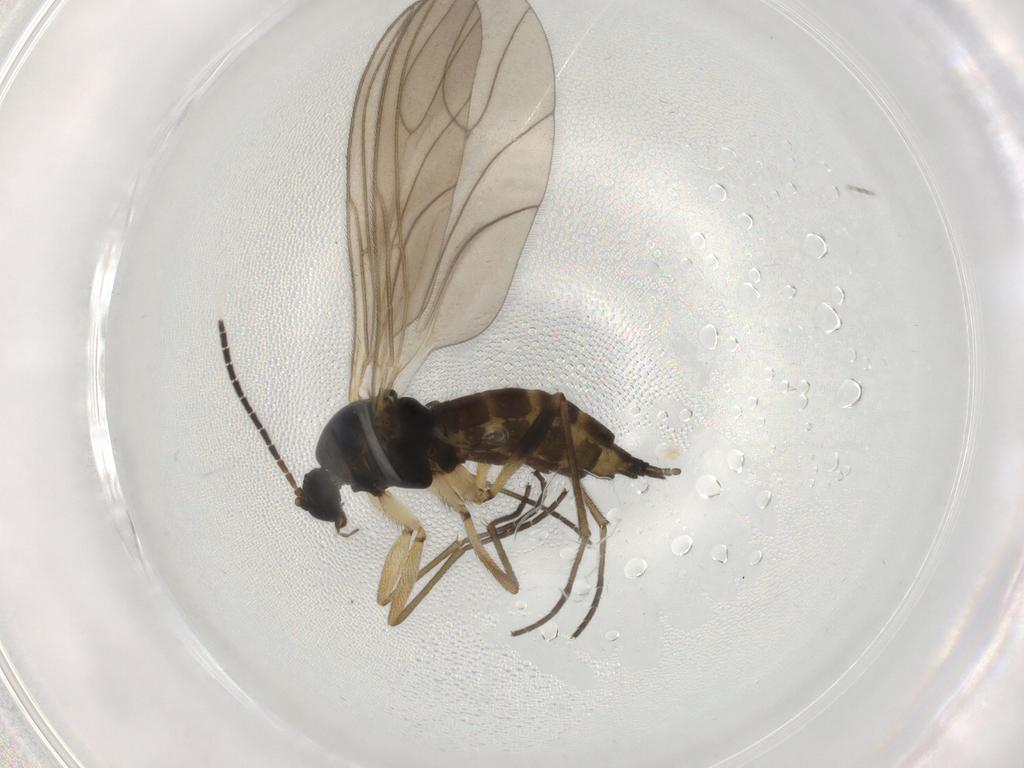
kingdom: Animalia
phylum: Arthropoda
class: Insecta
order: Diptera
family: Sciaridae
